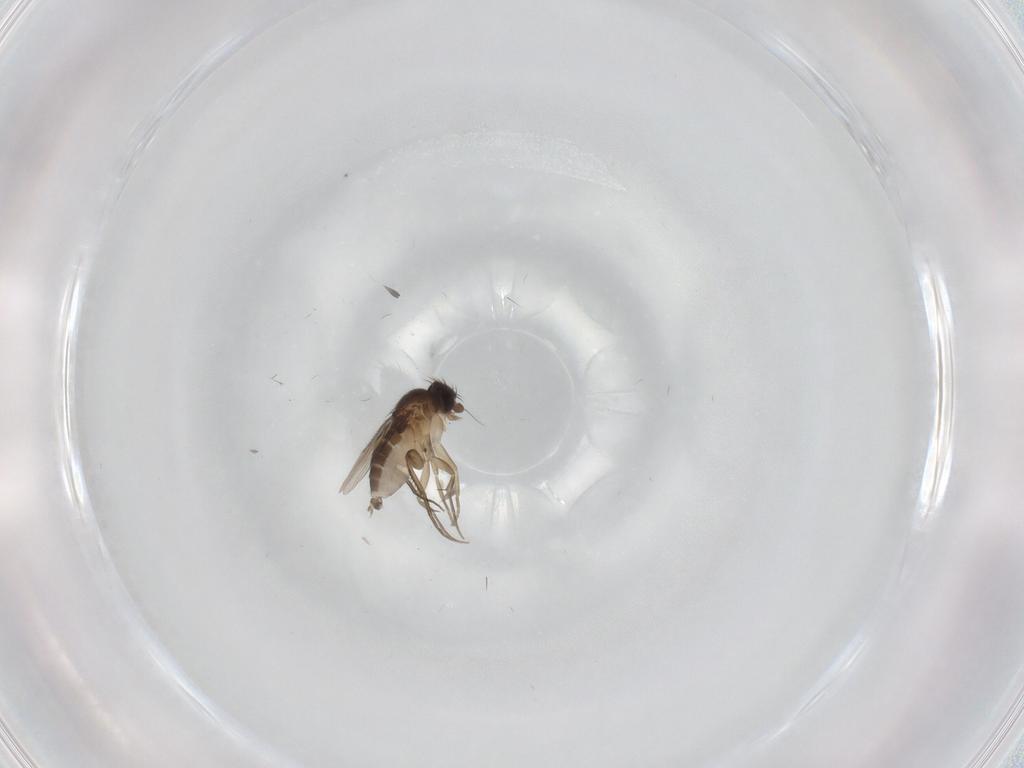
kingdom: Animalia
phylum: Arthropoda
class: Insecta
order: Diptera
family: Phoridae
